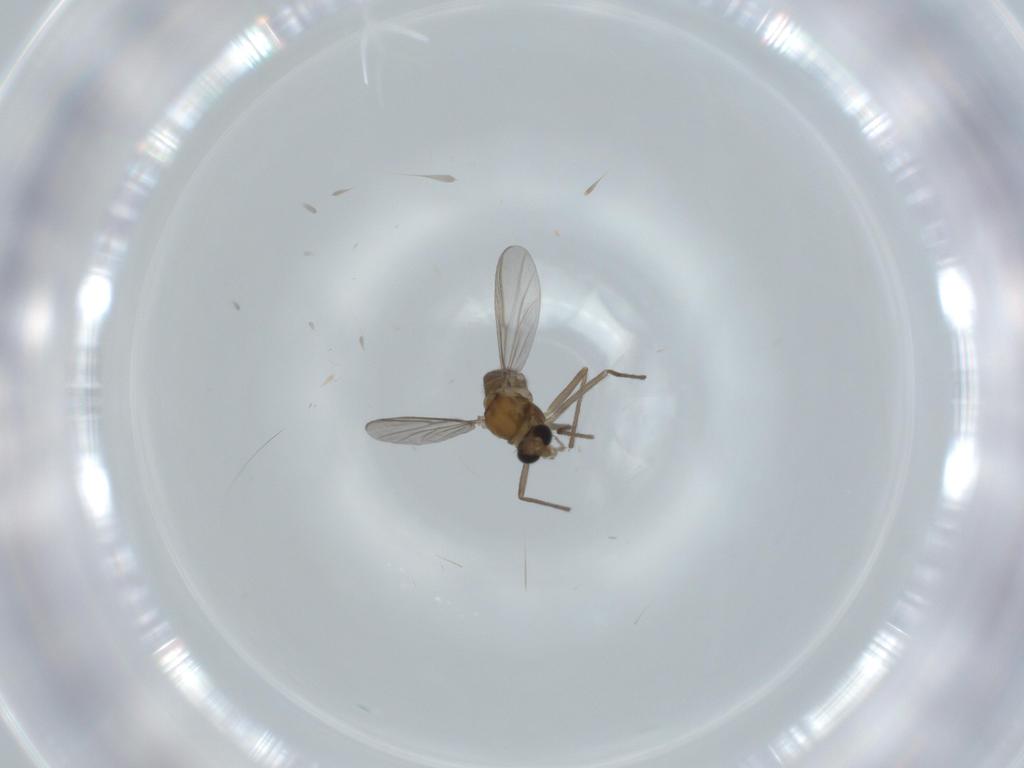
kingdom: Animalia
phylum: Arthropoda
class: Insecta
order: Diptera
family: Chironomidae
